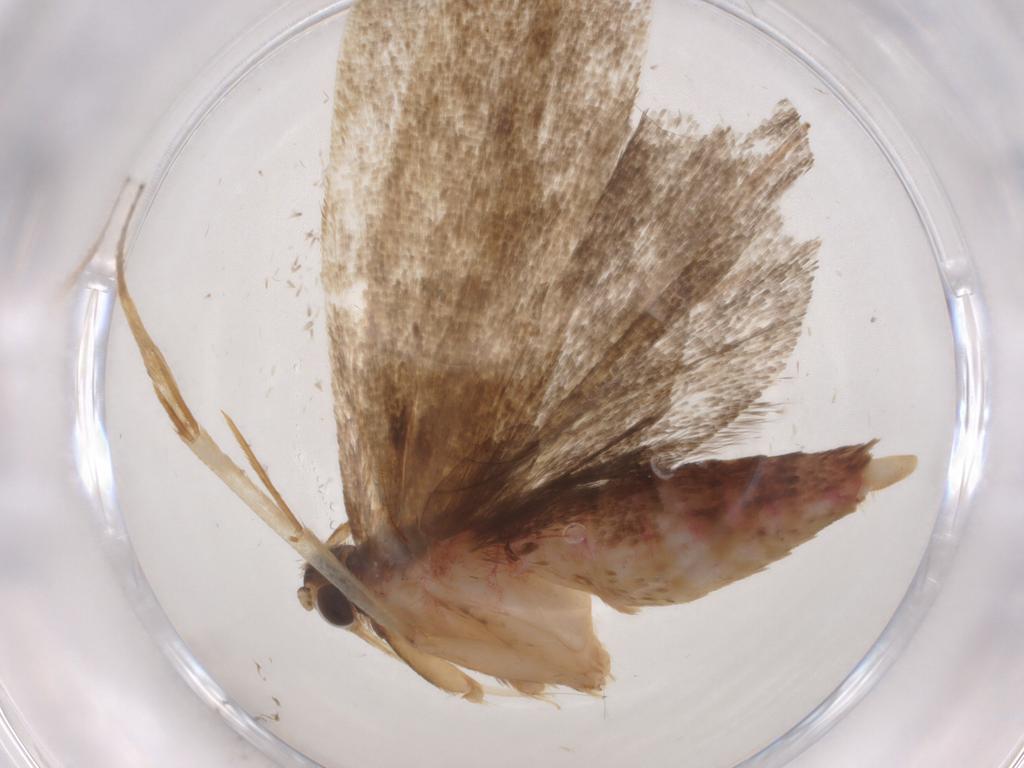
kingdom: Animalia
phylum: Arthropoda
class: Insecta
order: Lepidoptera
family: Autostichidae
